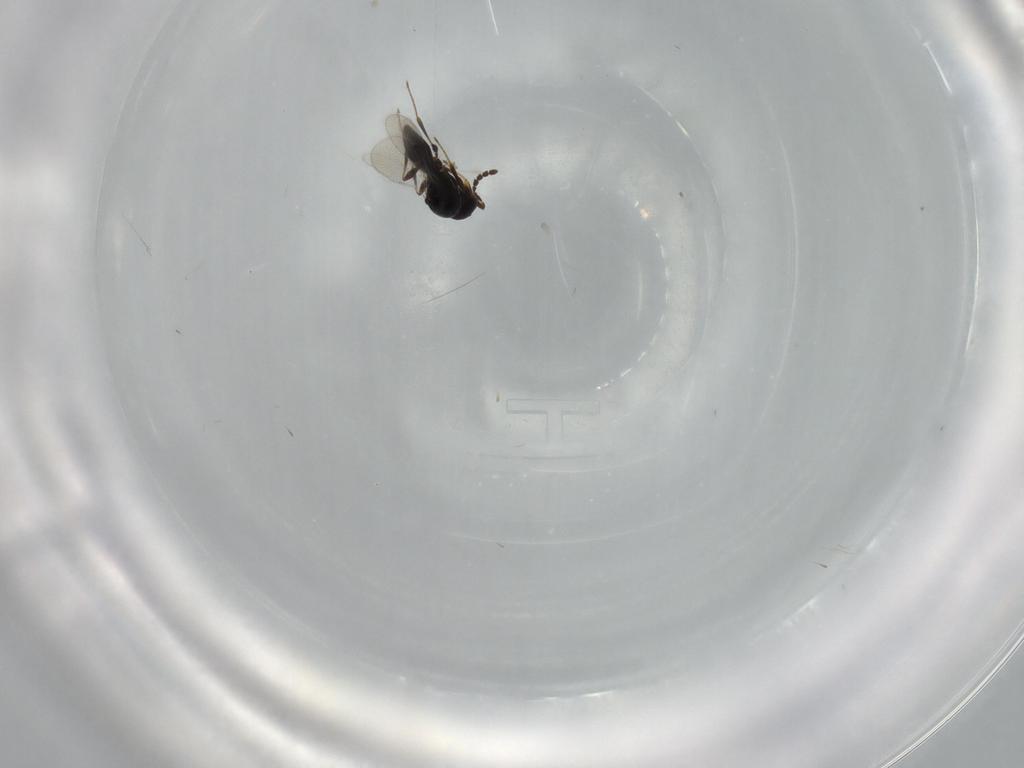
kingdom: Animalia
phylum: Arthropoda
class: Insecta
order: Hymenoptera
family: Platygastridae
